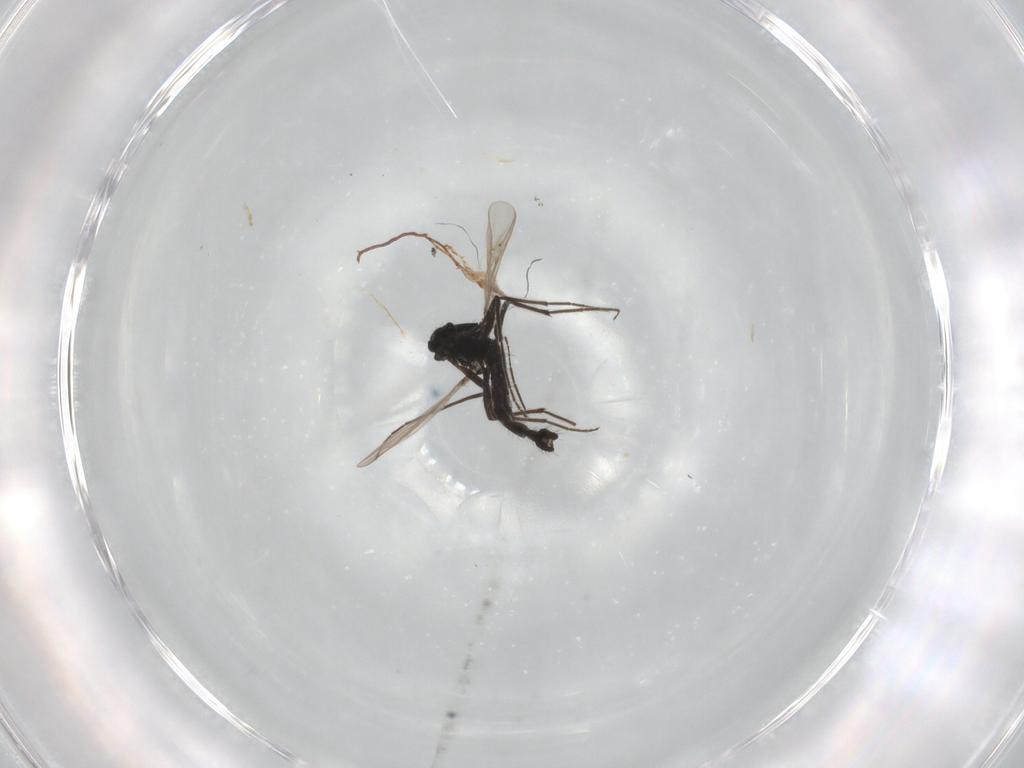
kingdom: Animalia
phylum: Arthropoda
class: Insecta
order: Diptera
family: Chironomidae
